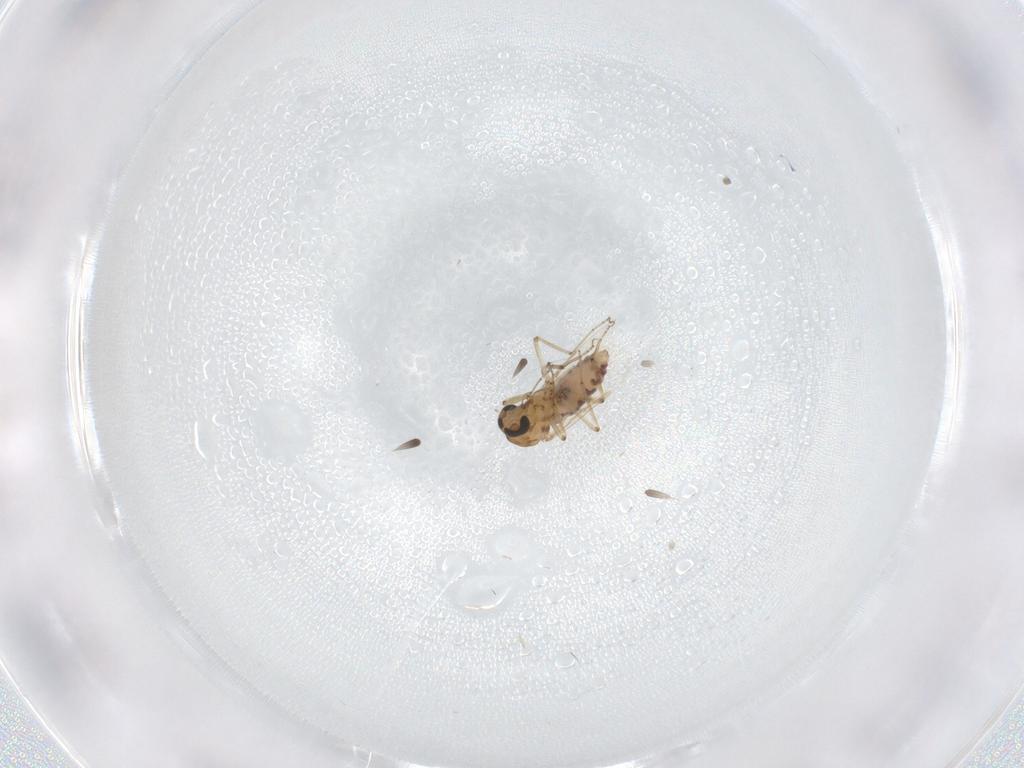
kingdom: Animalia
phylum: Arthropoda
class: Insecta
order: Diptera
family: Ceratopogonidae
